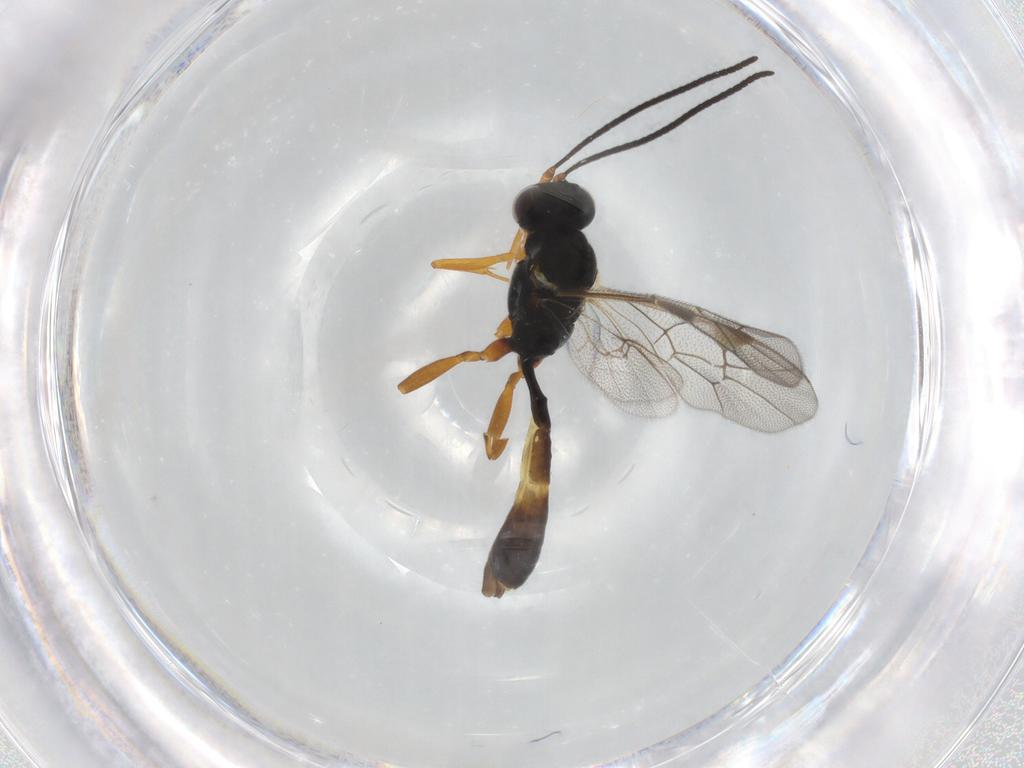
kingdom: Animalia
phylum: Arthropoda
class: Insecta
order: Hymenoptera
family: Ichneumonidae
